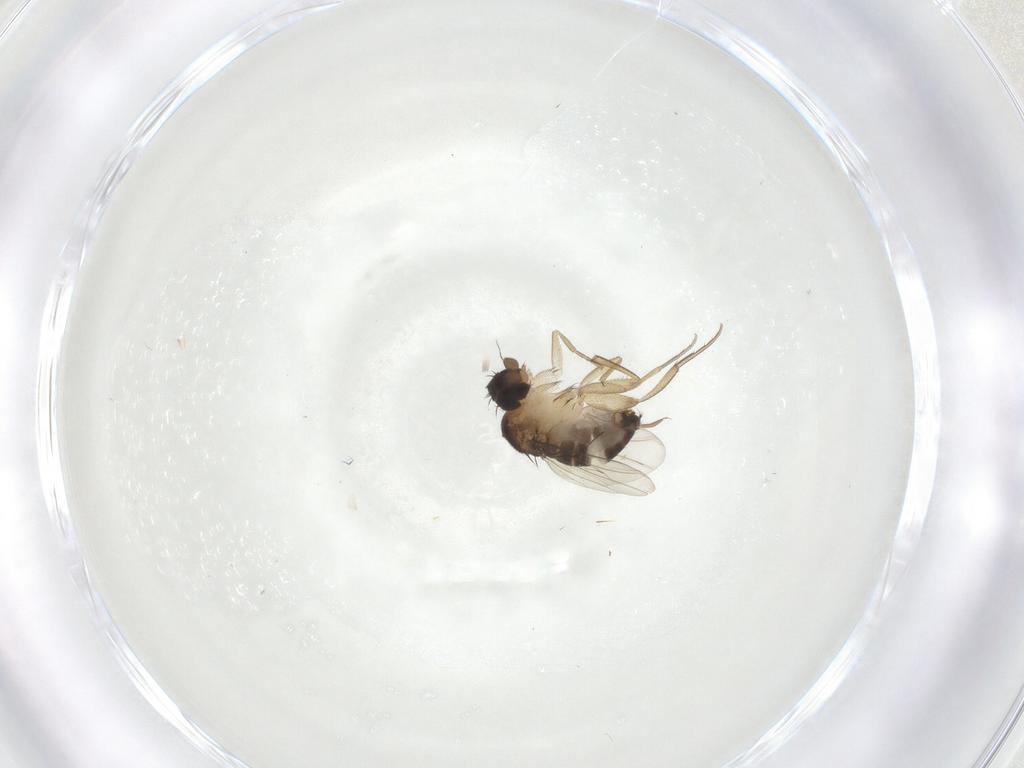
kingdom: Animalia
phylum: Arthropoda
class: Insecta
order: Diptera
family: Phoridae
